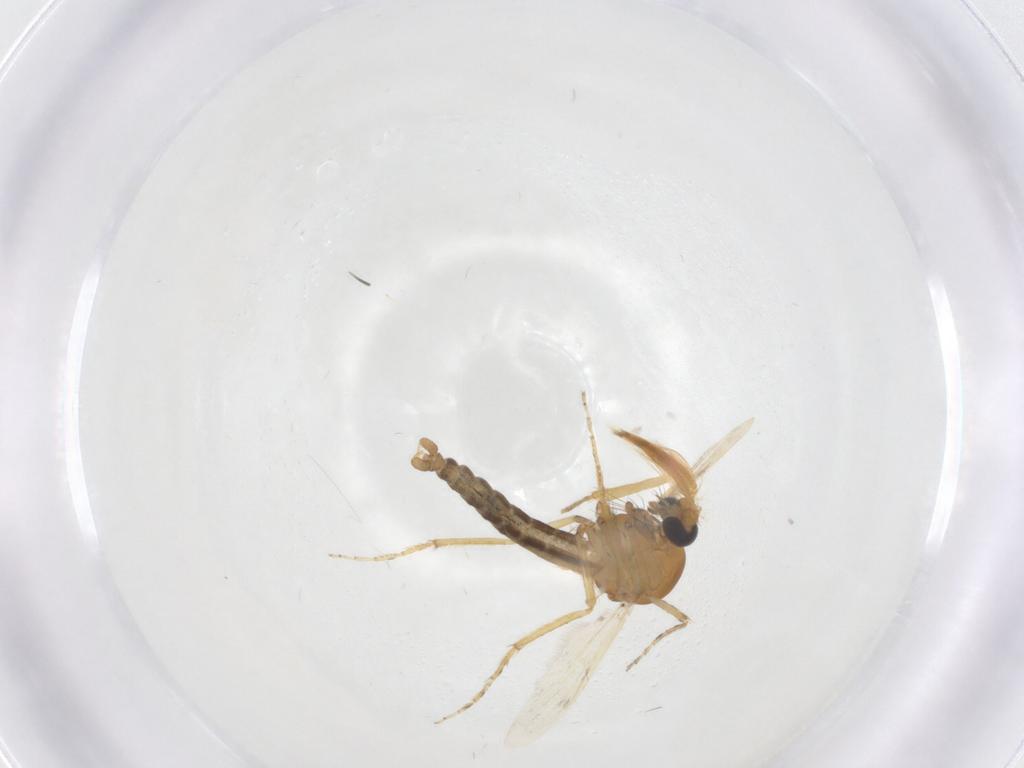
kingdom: Animalia
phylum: Arthropoda
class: Insecta
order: Diptera
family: Ceratopogonidae
